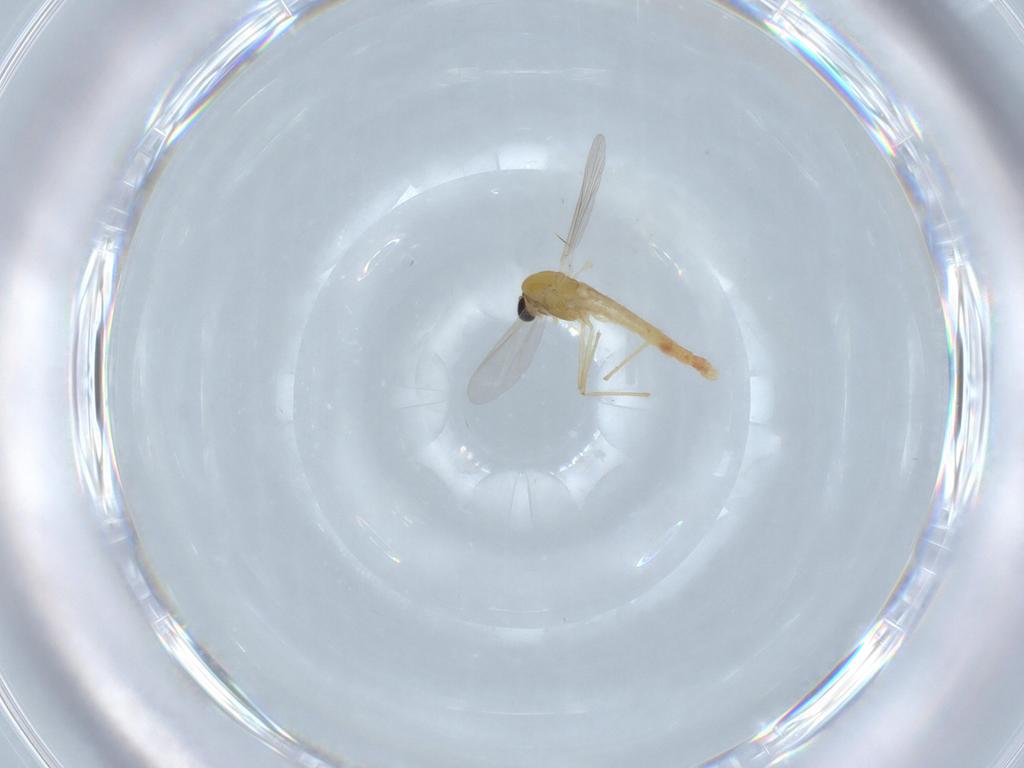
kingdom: Animalia
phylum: Arthropoda
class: Insecta
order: Diptera
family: Chironomidae
